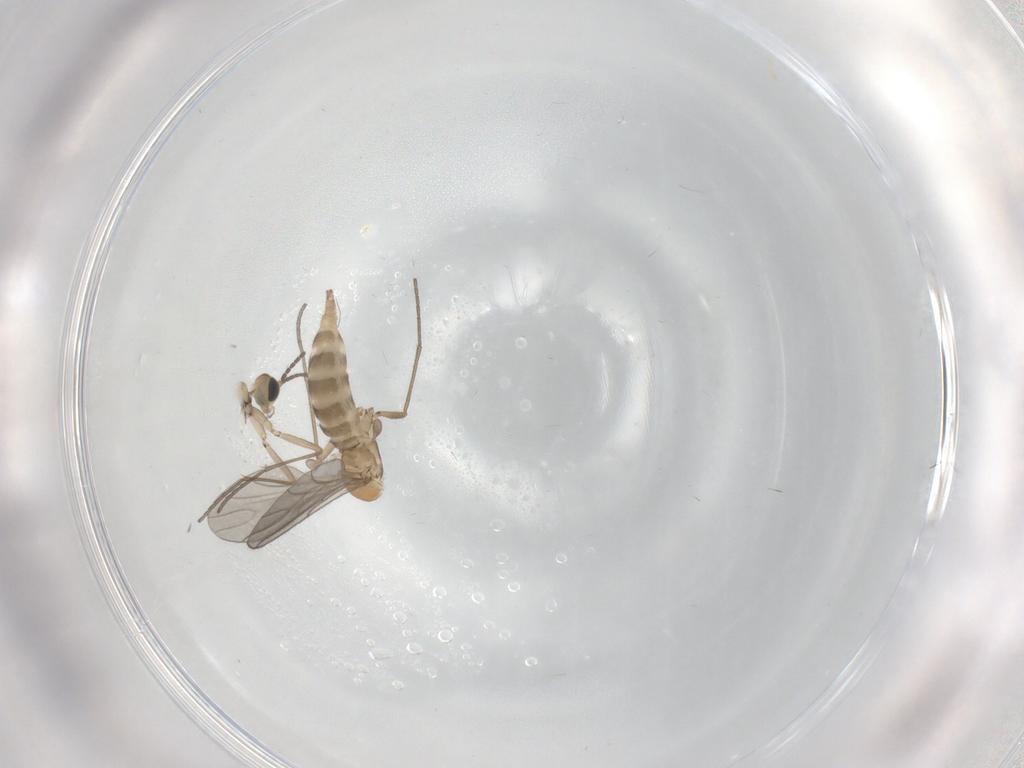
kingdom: Animalia
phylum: Arthropoda
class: Insecta
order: Diptera
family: Sciaridae
